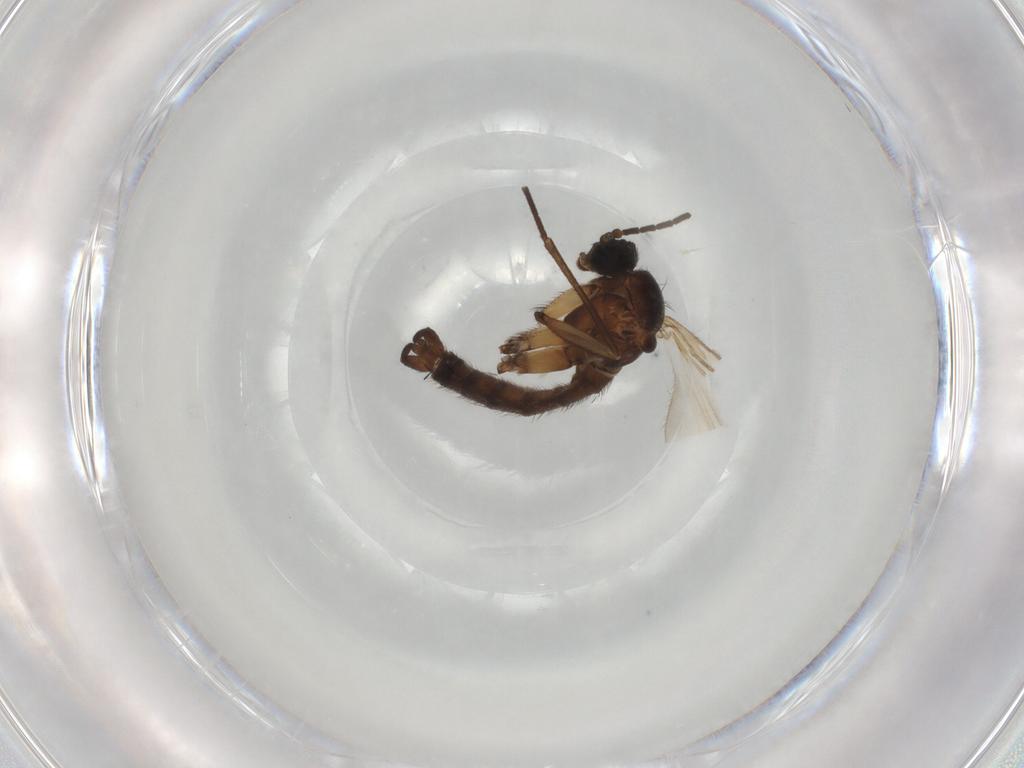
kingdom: Animalia
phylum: Arthropoda
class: Insecta
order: Diptera
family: Sciaridae
